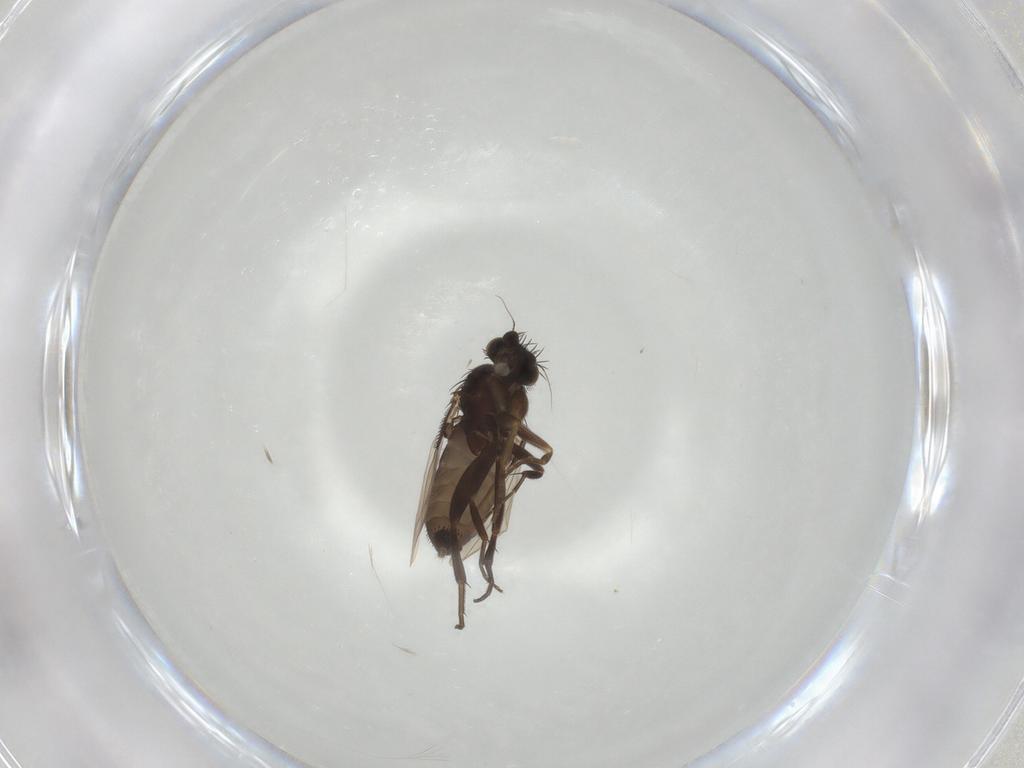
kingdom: Animalia
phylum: Arthropoda
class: Insecta
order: Diptera
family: Phoridae
